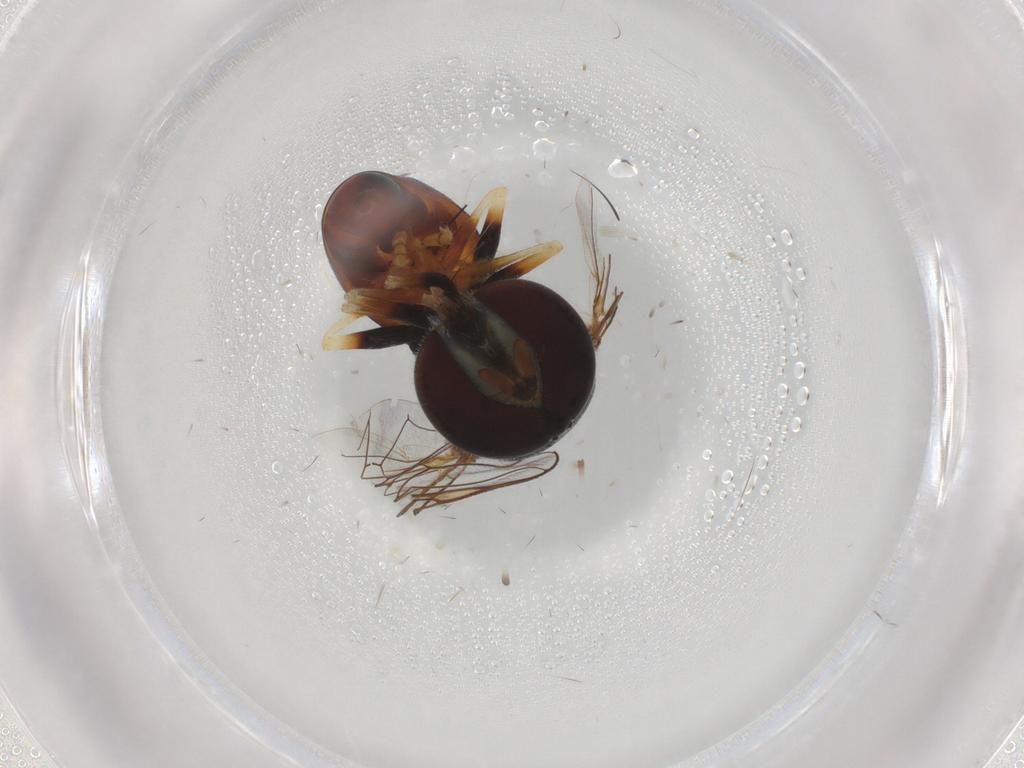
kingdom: Animalia
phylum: Arthropoda
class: Insecta
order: Diptera
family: Syrphidae
